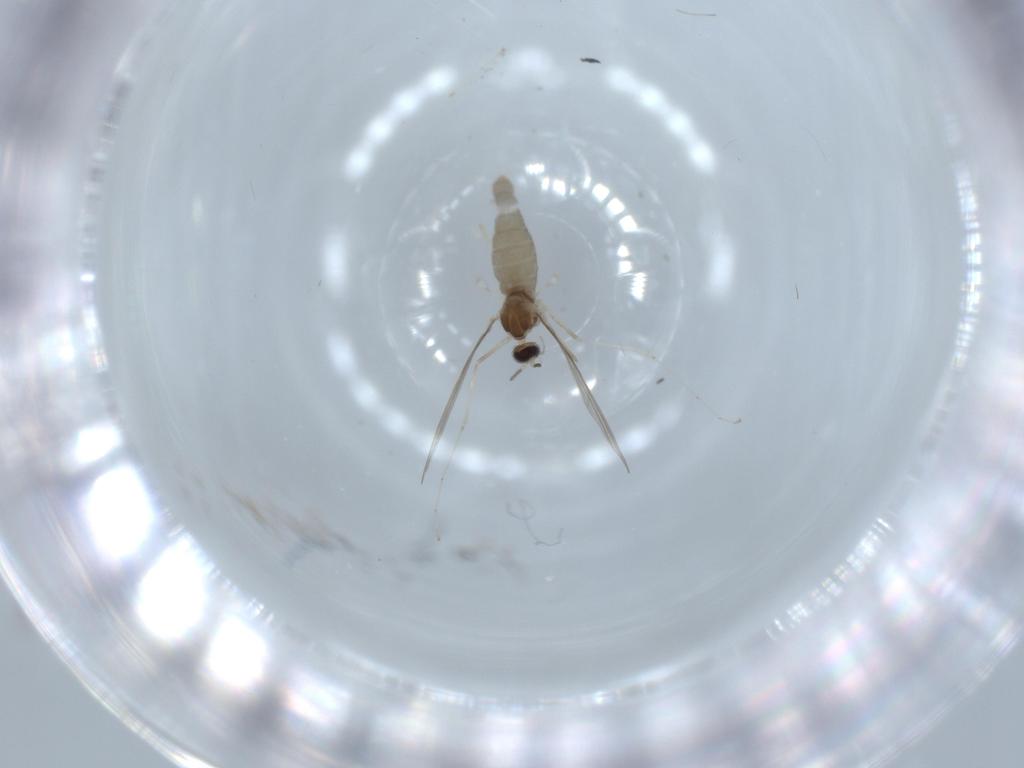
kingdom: Animalia
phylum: Arthropoda
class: Insecta
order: Diptera
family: Cecidomyiidae
